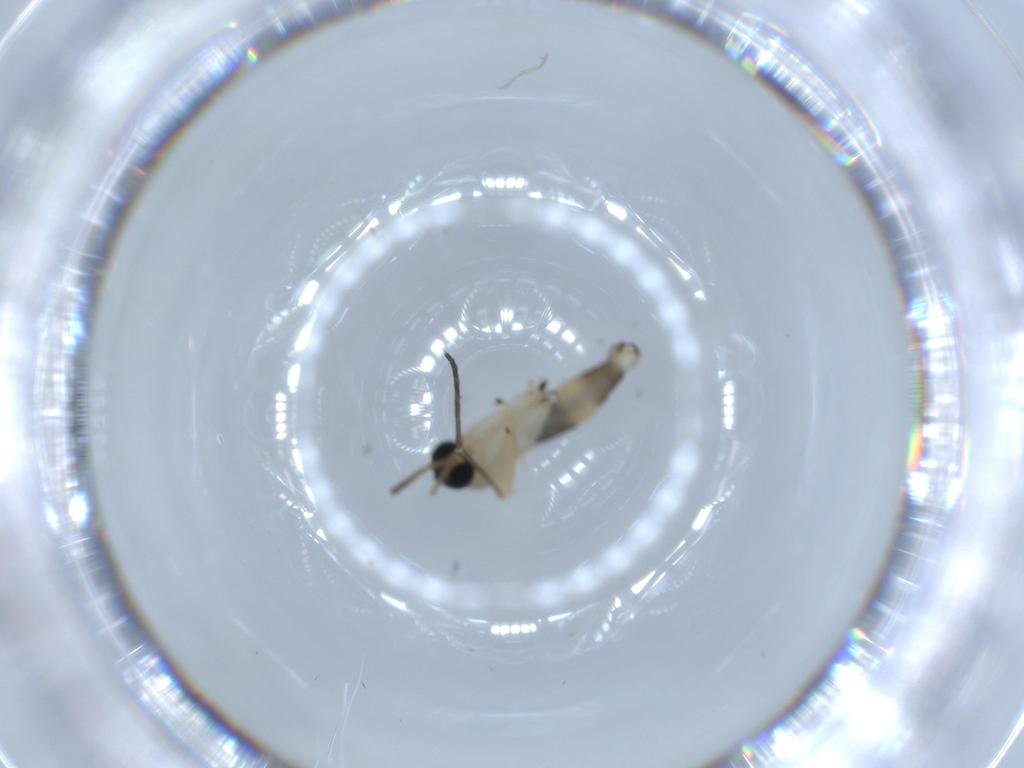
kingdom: Animalia
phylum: Arthropoda
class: Insecta
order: Diptera
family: Sciaridae
